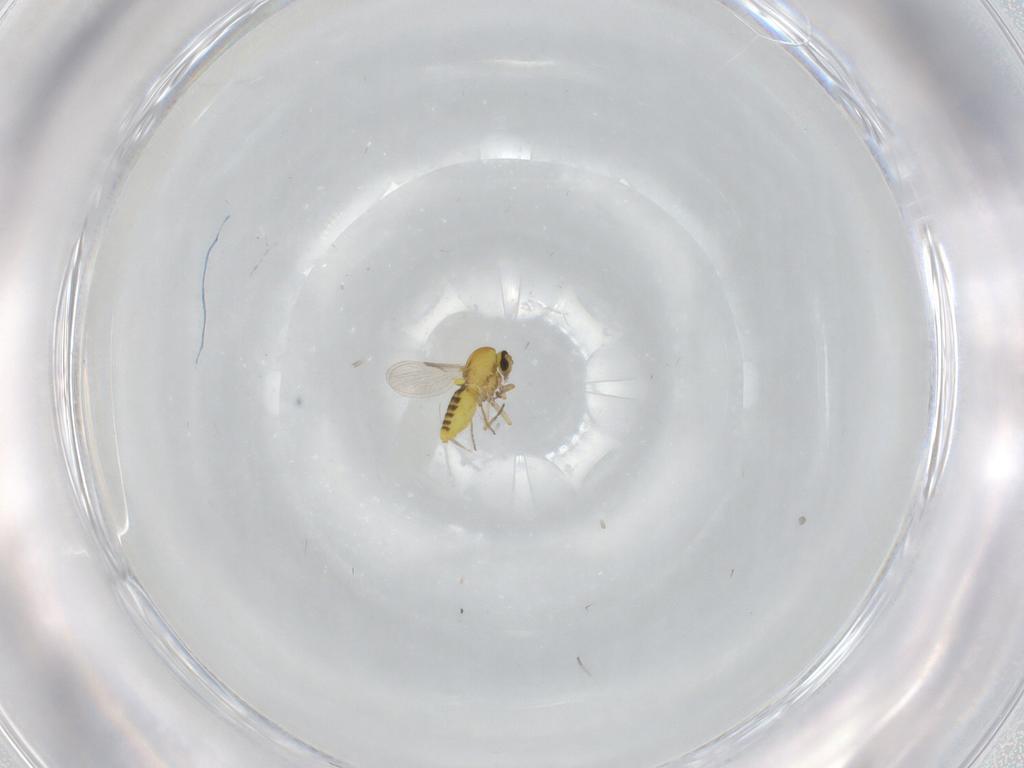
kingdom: Animalia
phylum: Arthropoda
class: Insecta
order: Diptera
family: Ceratopogonidae
